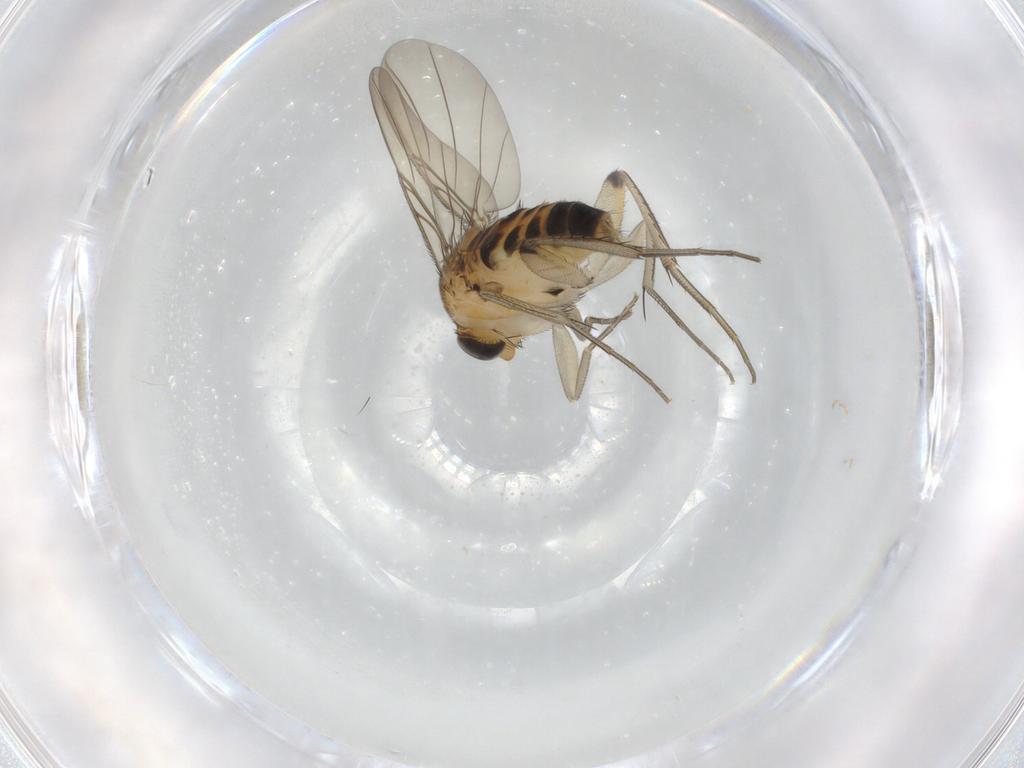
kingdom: Animalia
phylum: Arthropoda
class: Insecta
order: Diptera
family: Phoridae
